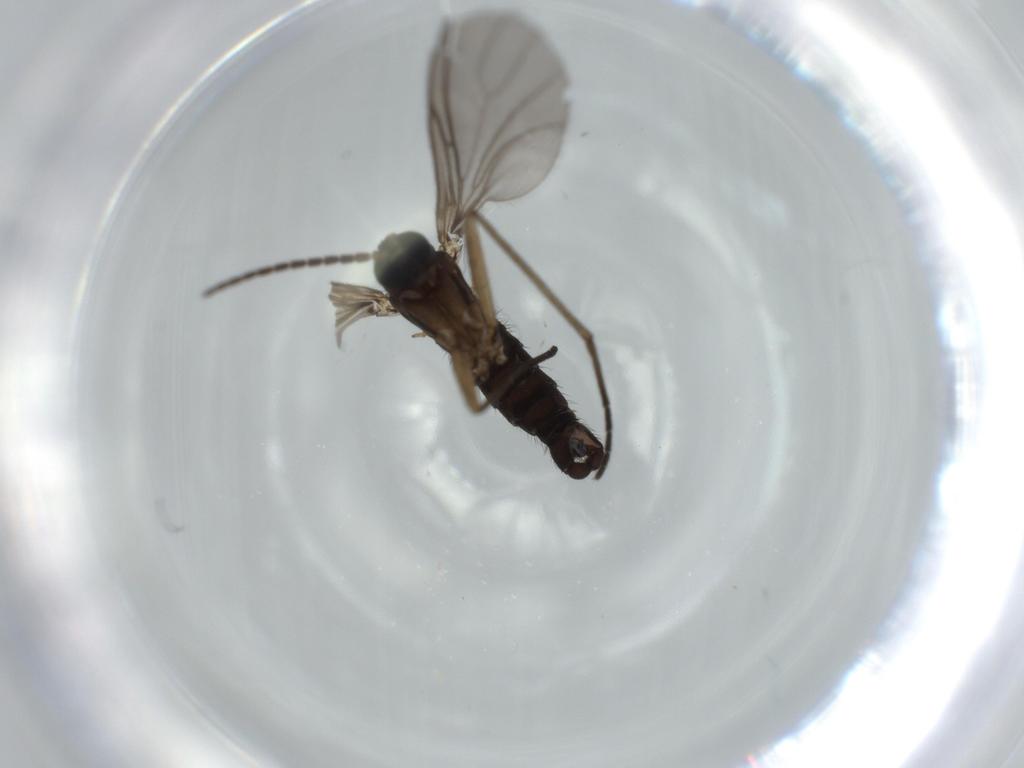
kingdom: Animalia
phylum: Arthropoda
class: Insecta
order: Diptera
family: Sciaridae
